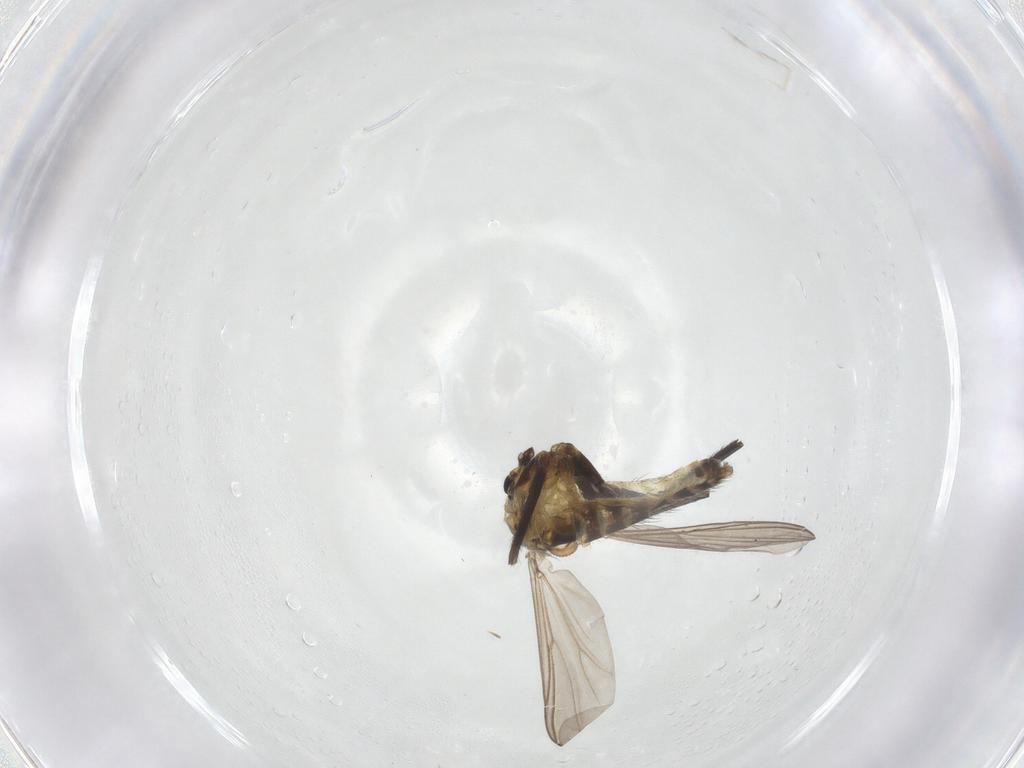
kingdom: Animalia
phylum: Arthropoda
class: Insecta
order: Diptera
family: Chironomidae
